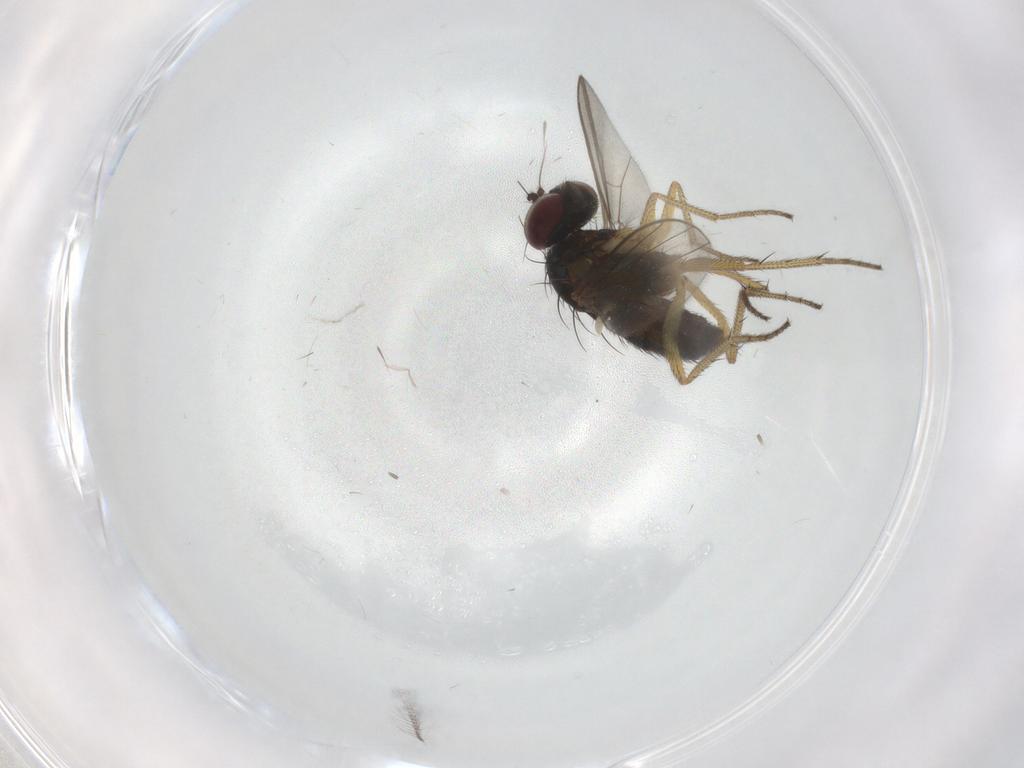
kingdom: Animalia
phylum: Arthropoda
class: Insecta
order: Diptera
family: Dolichopodidae
